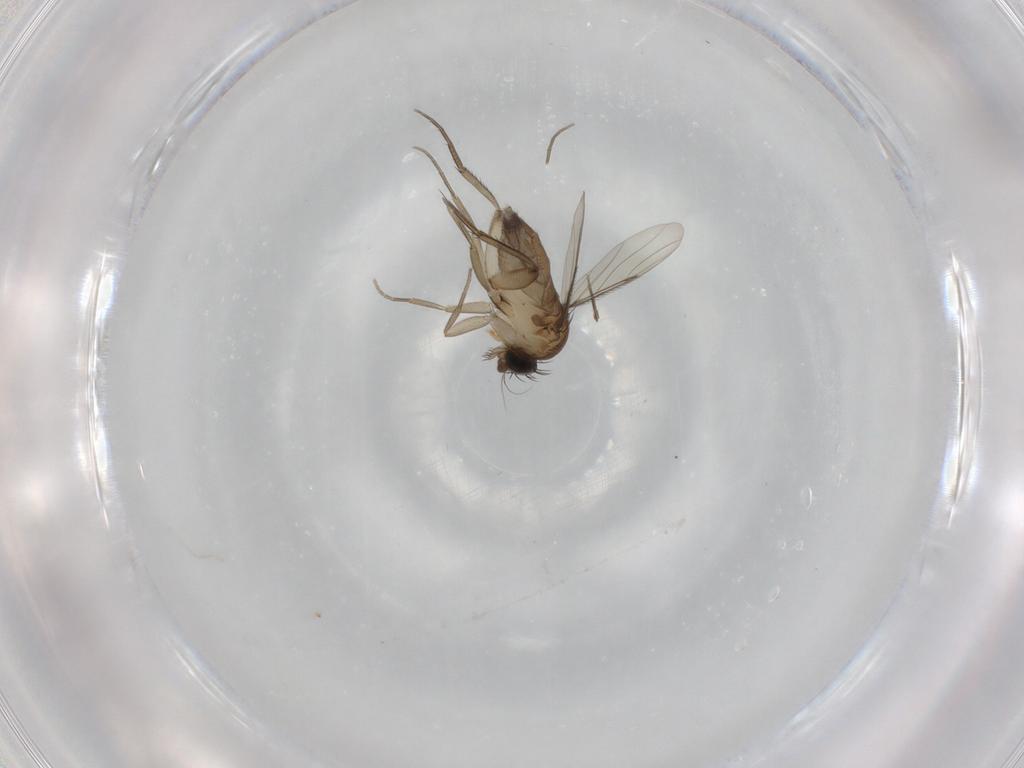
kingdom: Animalia
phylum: Arthropoda
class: Insecta
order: Diptera
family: Phoridae
